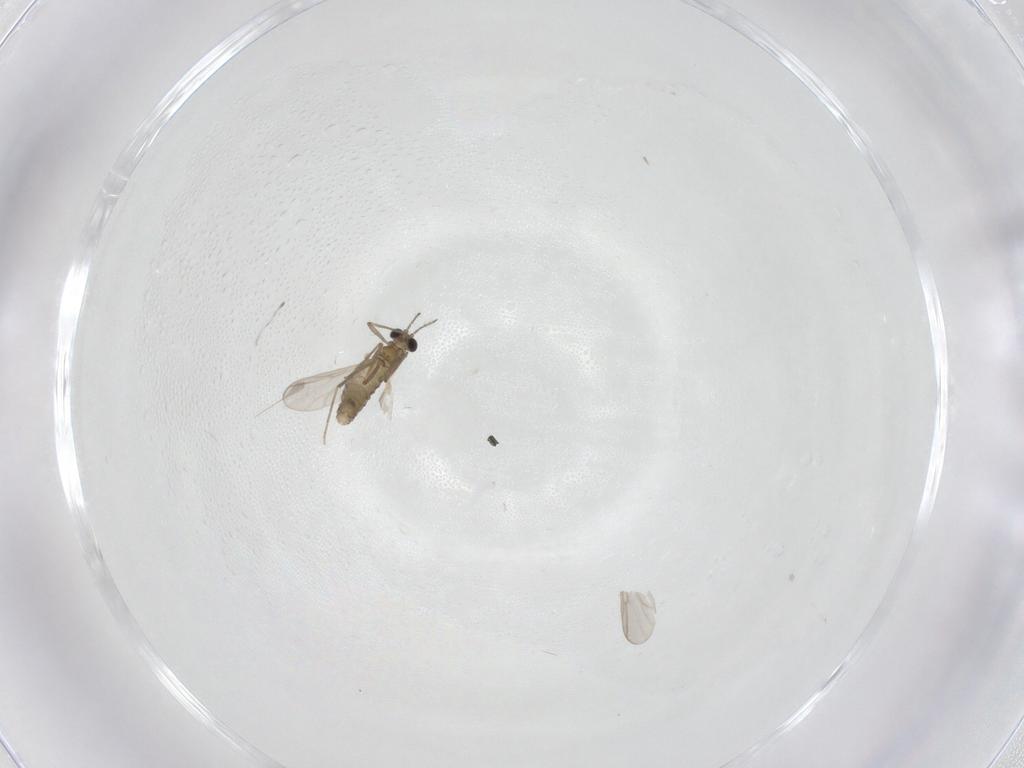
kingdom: Animalia
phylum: Arthropoda
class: Insecta
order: Diptera
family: Chironomidae
